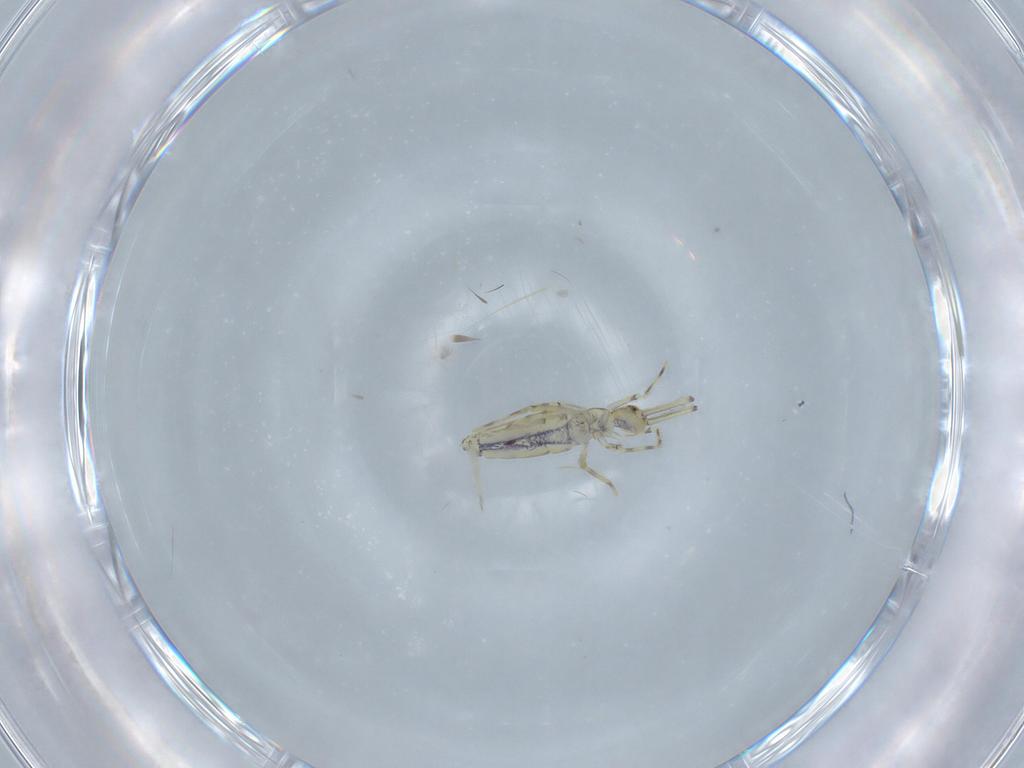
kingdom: Animalia
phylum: Arthropoda
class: Collembola
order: Entomobryomorpha
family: Paronellidae
